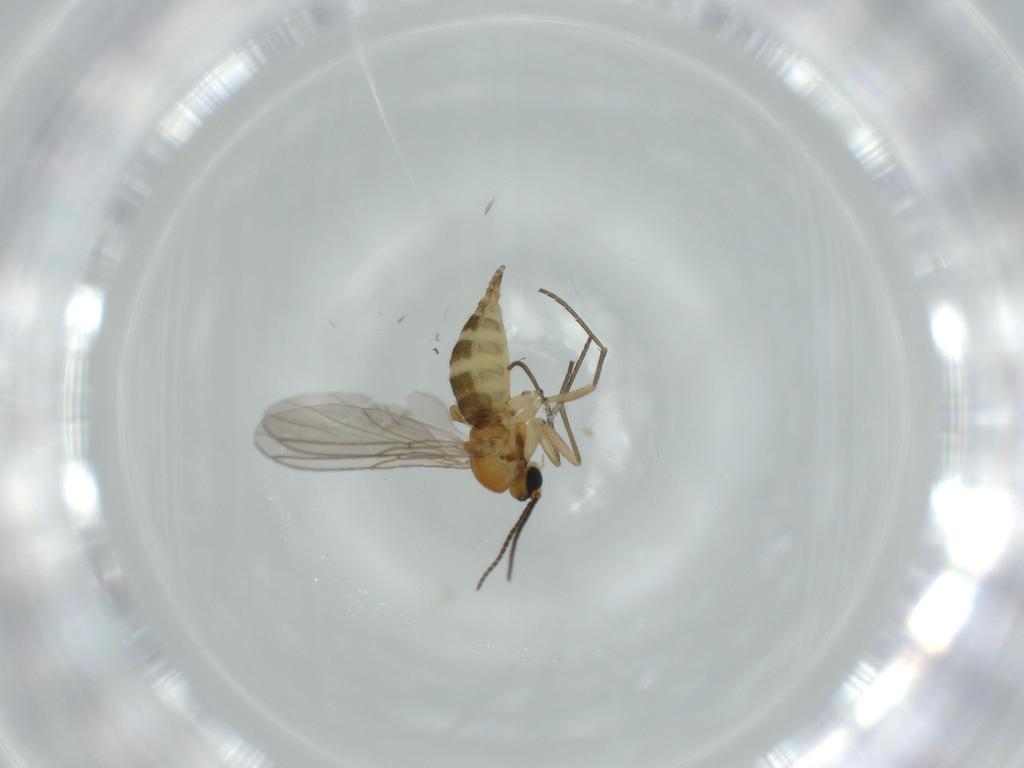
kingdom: Animalia
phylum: Arthropoda
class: Insecta
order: Diptera
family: Sciaridae
